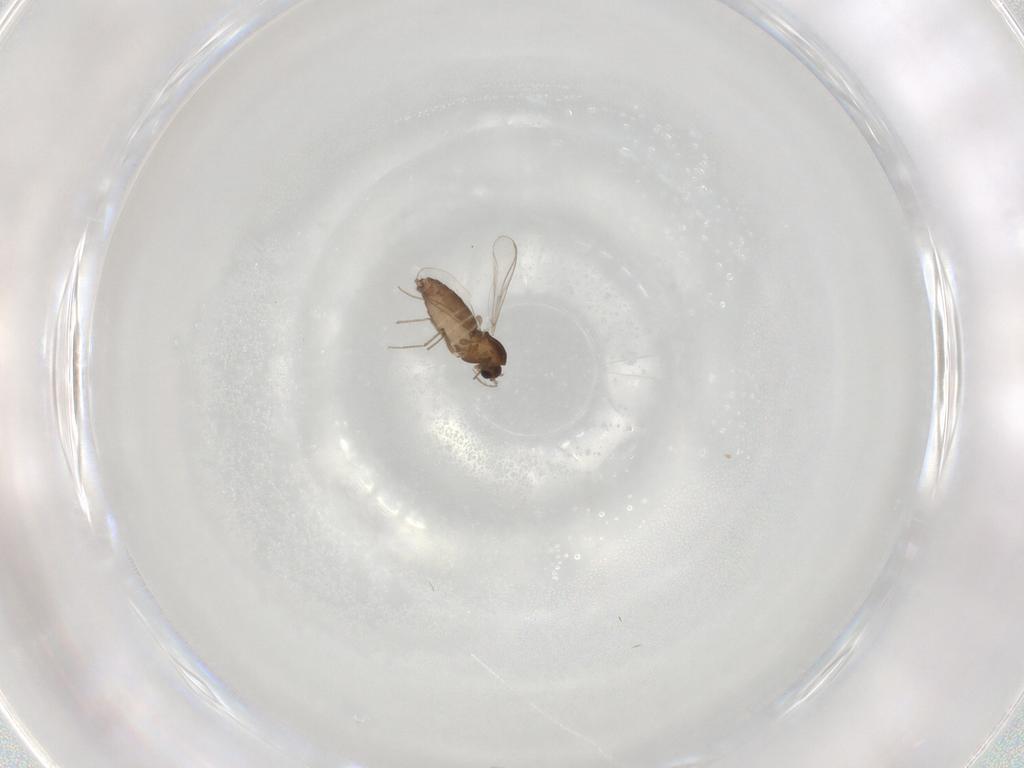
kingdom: Animalia
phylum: Arthropoda
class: Insecta
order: Diptera
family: Chironomidae
